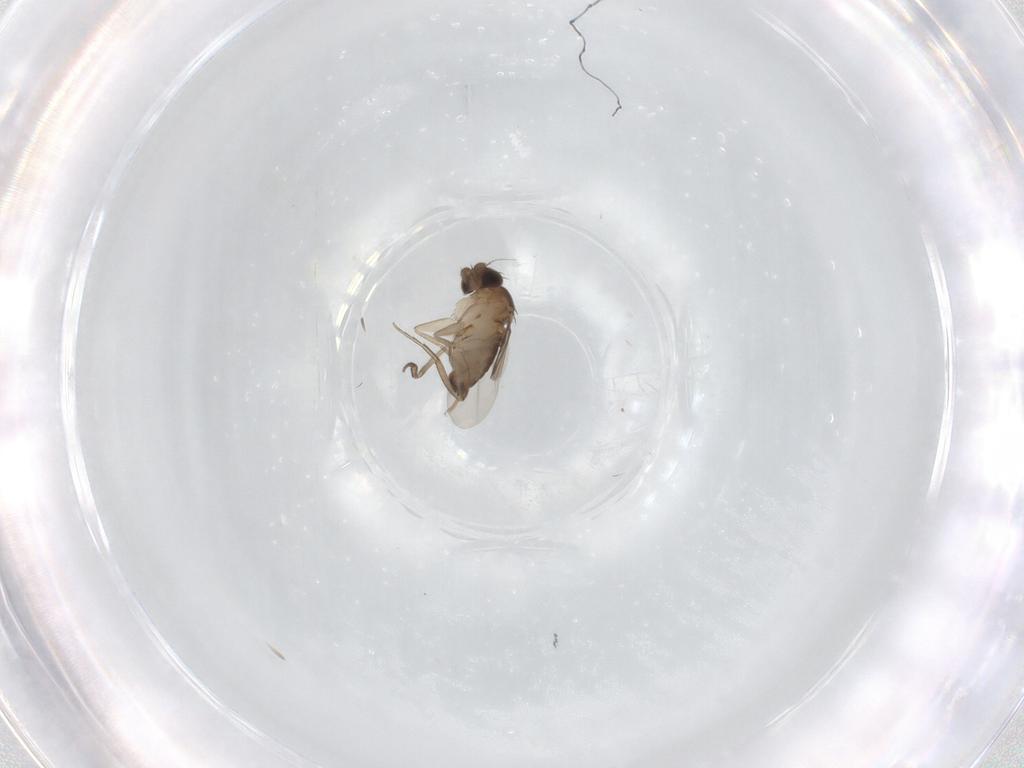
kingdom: Animalia
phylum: Arthropoda
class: Insecta
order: Diptera
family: Phoridae
